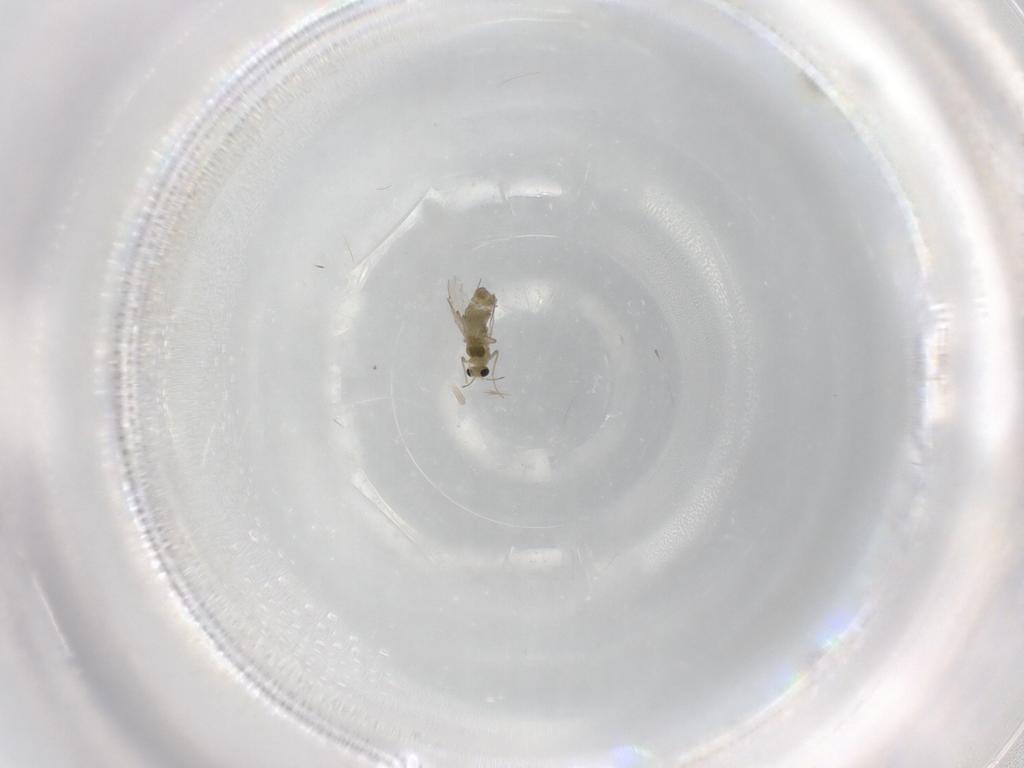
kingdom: Animalia
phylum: Arthropoda
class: Insecta
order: Diptera
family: Chironomidae
